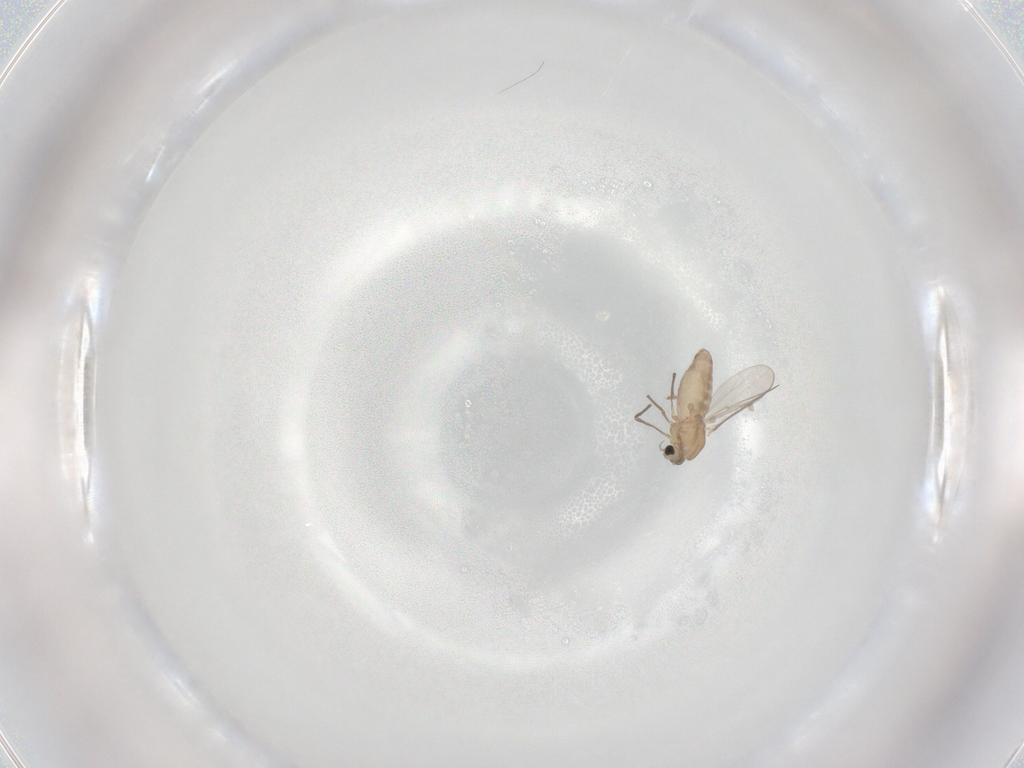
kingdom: Animalia
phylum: Arthropoda
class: Insecta
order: Diptera
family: Chironomidae
